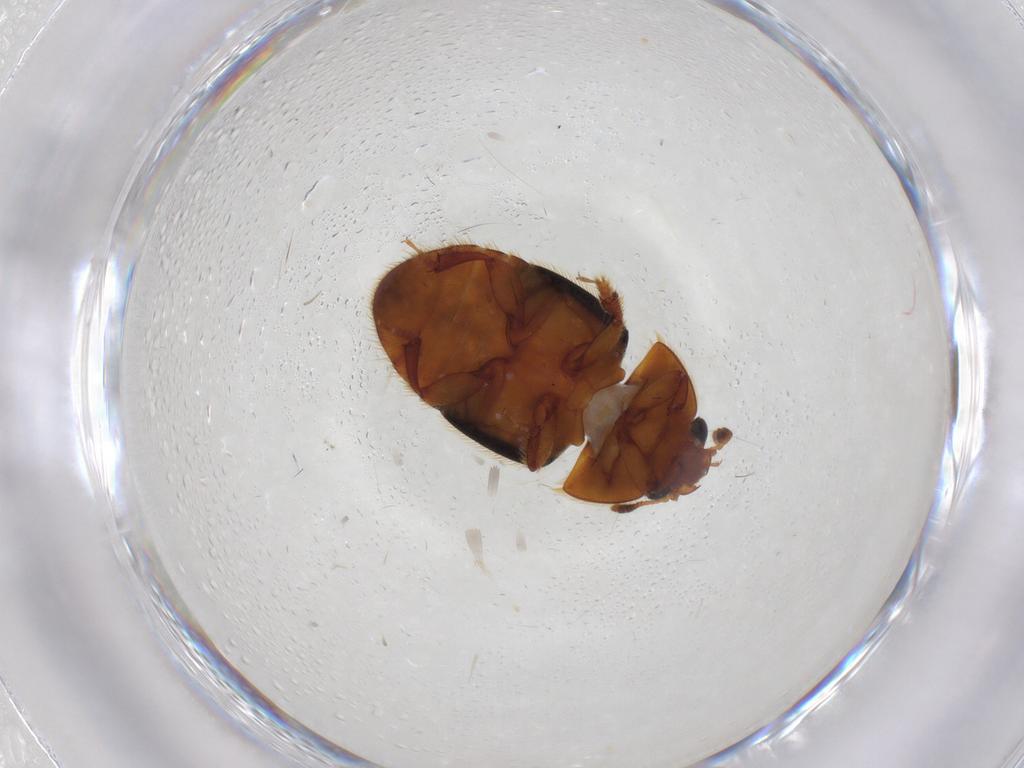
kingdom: Animalia
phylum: Arthropoda
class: Insecta
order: Coleoptera
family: Nitidulidae
